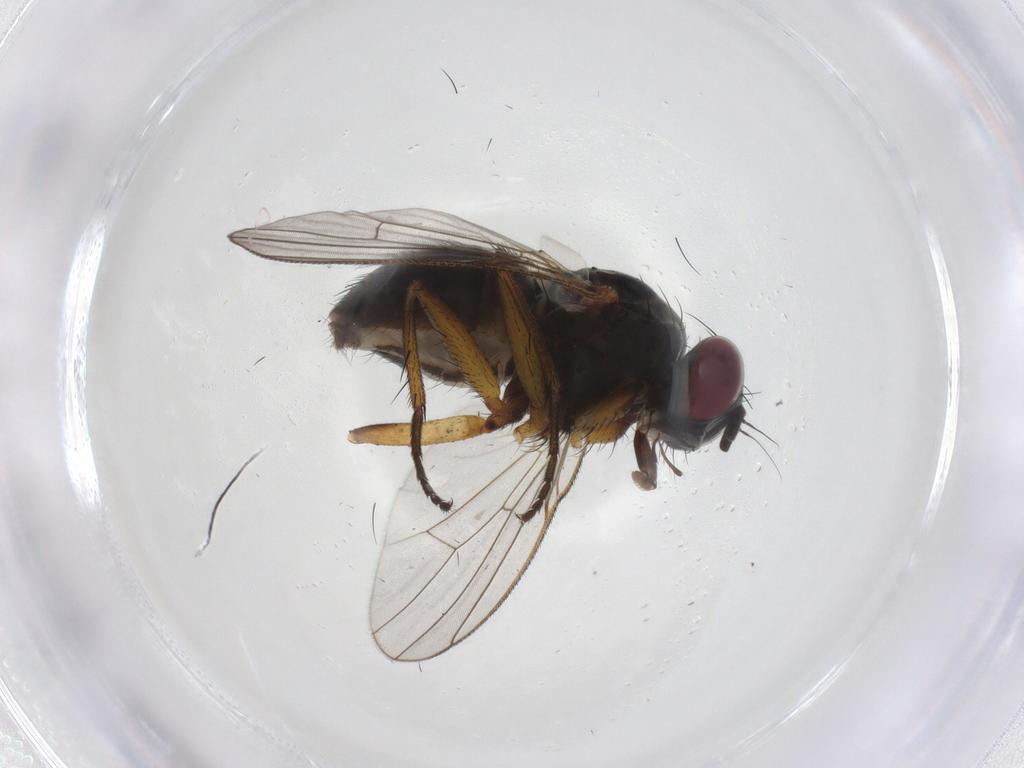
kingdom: Animalia
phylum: Arthropoda
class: Insecta
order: Diptera
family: Muscidae
